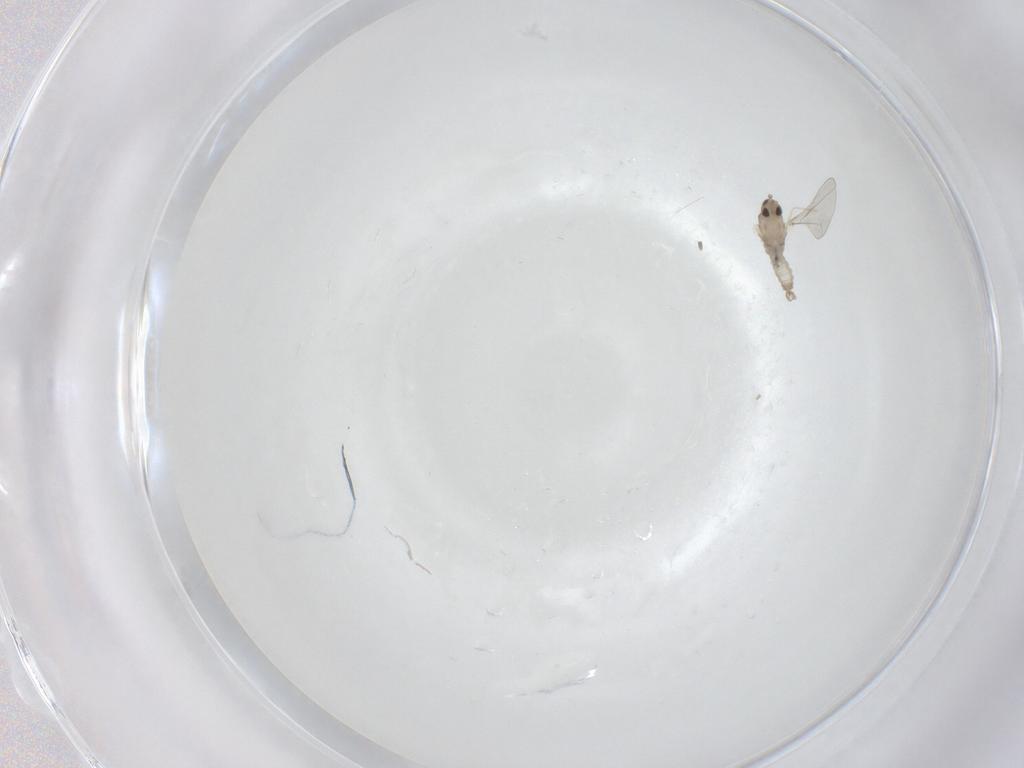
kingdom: Animalia
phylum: Arthropoda
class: Insecta
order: Diptera
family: Cecidomyiidae
